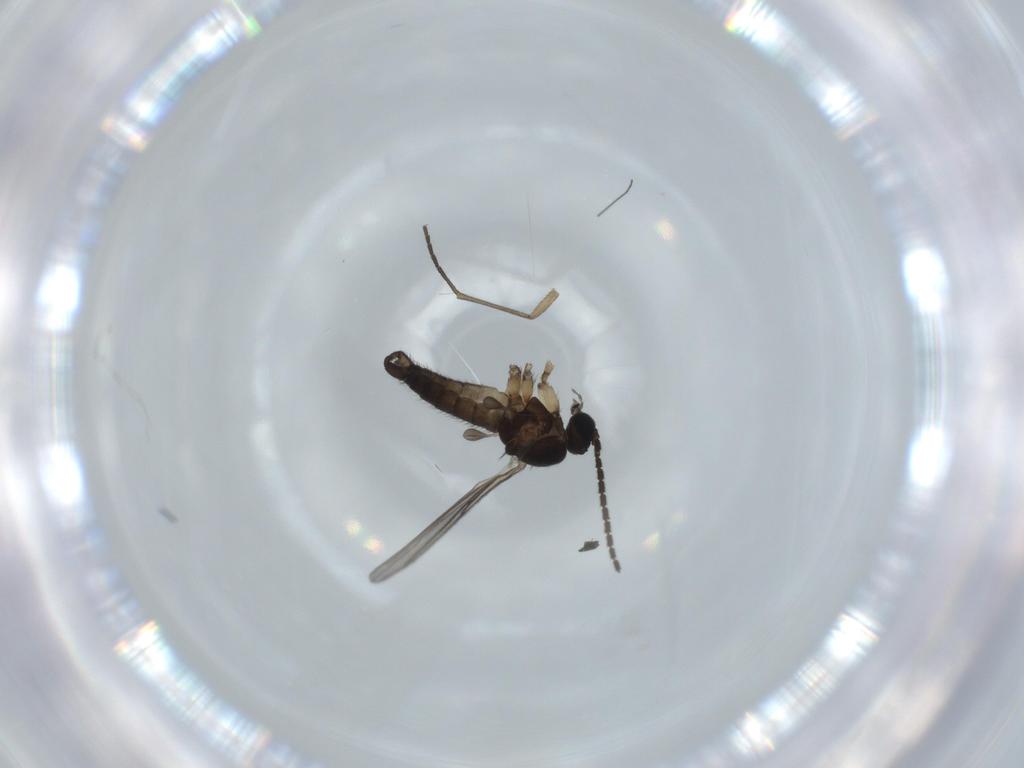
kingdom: Animalia
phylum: Arthropoda
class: Insecta
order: Diptera
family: Sciaridae
